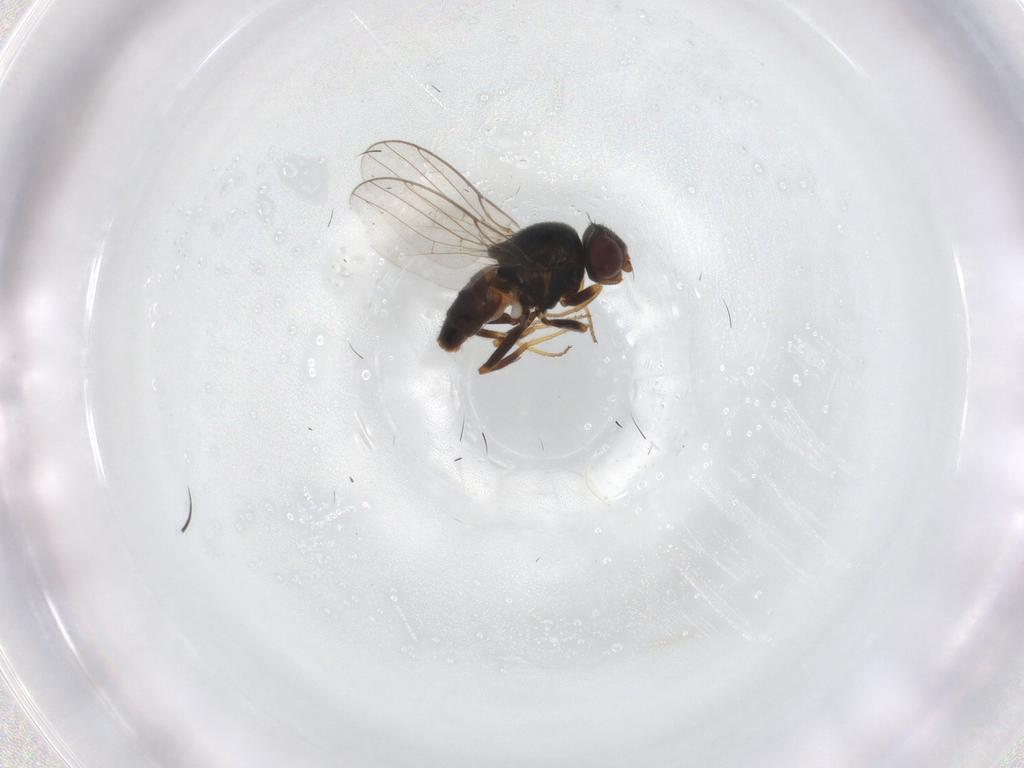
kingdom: Animalia
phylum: Arthropoda
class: Insecta
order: Diptera
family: Chloropidae
